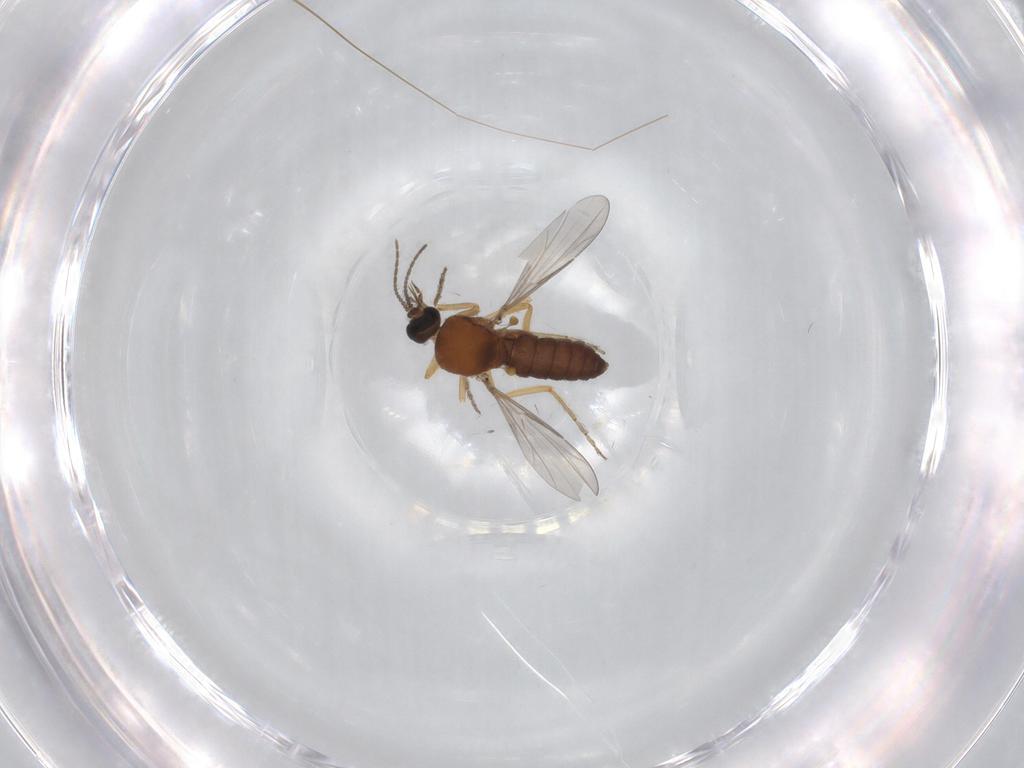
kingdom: Animalia
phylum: Arthropoda
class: Insecta
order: Diptera
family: Ceratopogonidae
